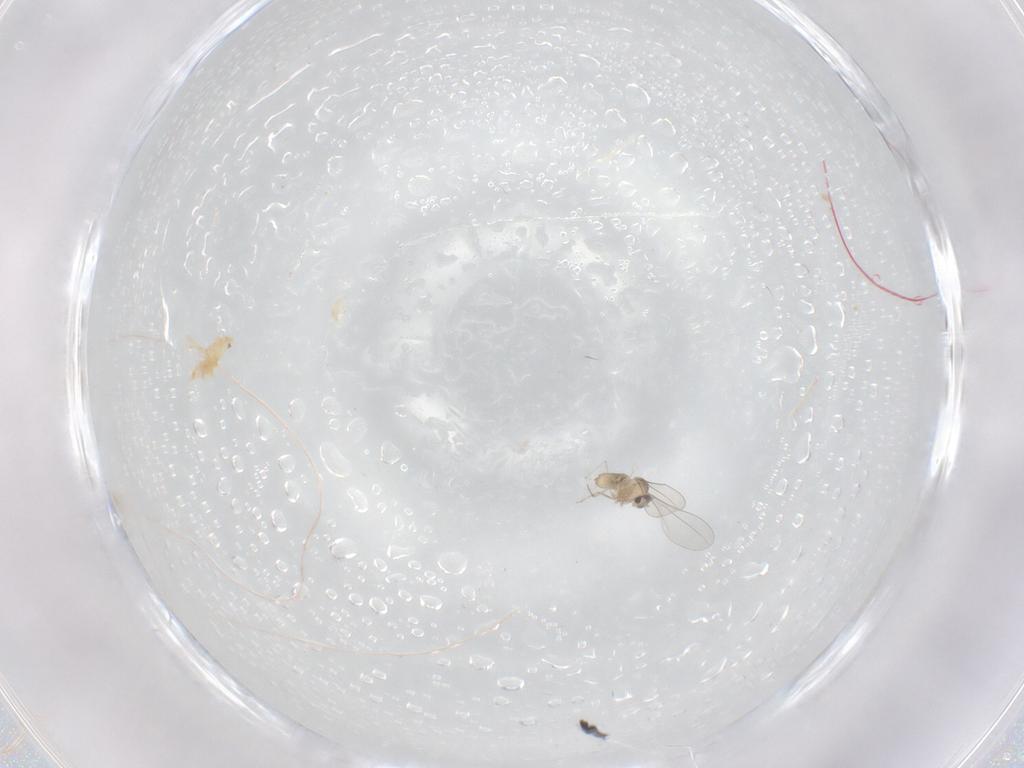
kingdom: Animalia
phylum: Arthropoda
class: Insecta
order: Diptera
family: Cecidomyiidae
